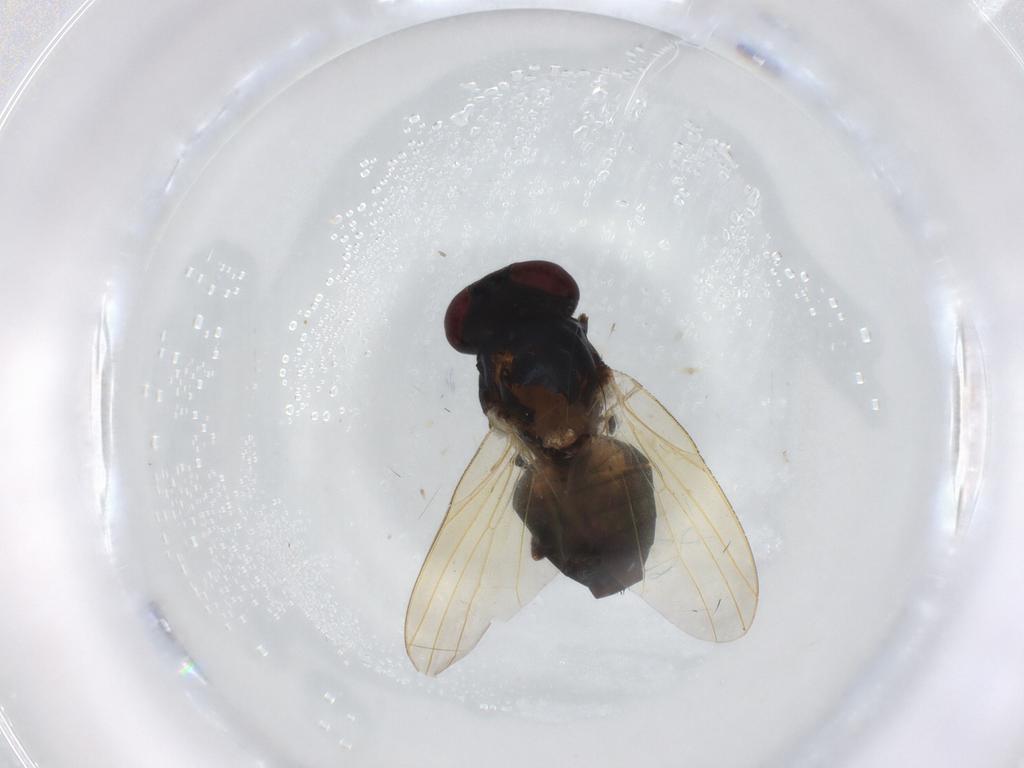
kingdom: Animalia
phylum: Arthropoda
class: Insecta
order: Diptera
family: Lonchaeidae
